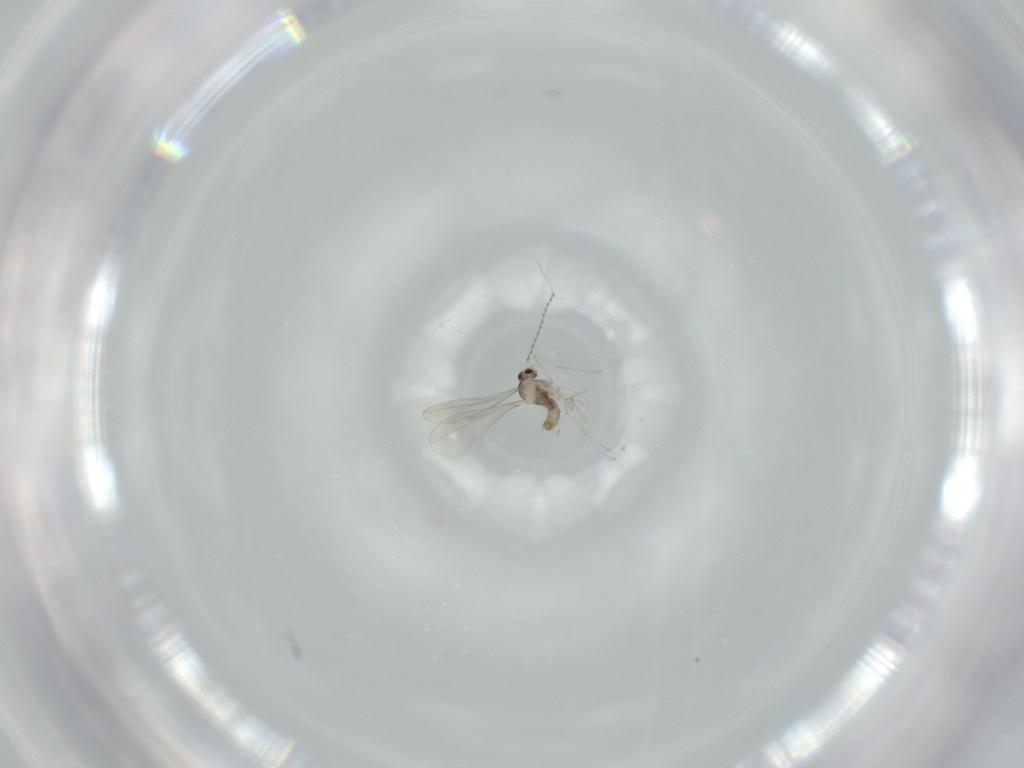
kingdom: Animalia
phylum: Arthropoda
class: Insecta
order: Diptera
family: Cecidomyiidae
